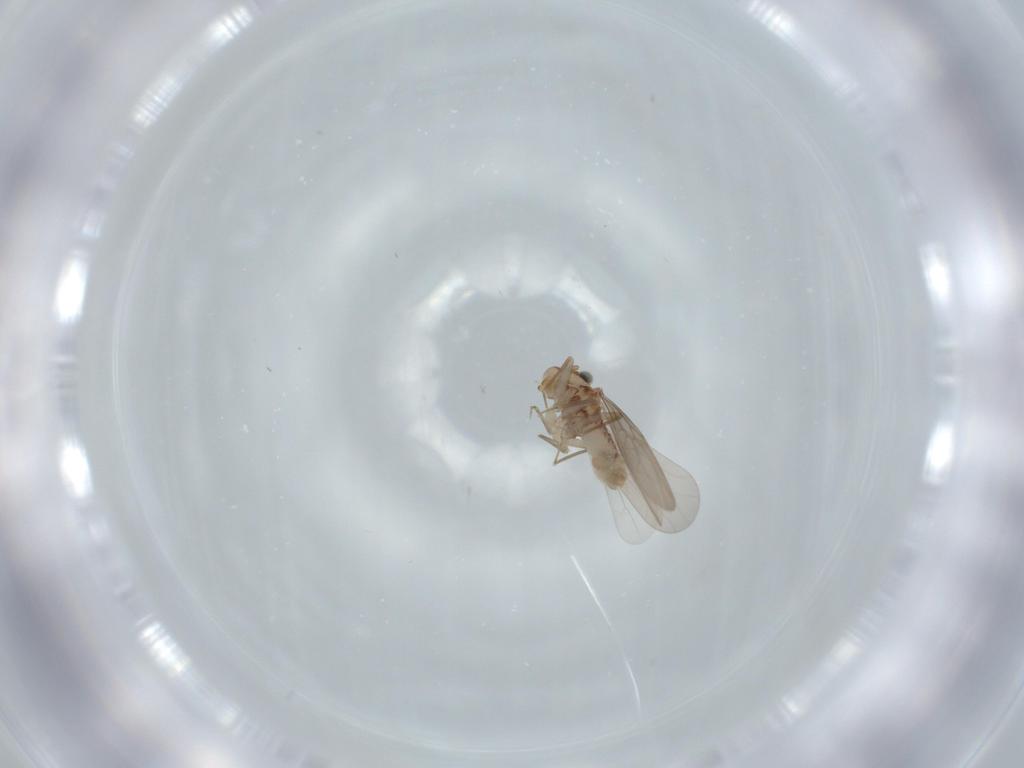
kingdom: Animalia
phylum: Arthropoda
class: Insecta
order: Psocodea
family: Lepidopsocidae
